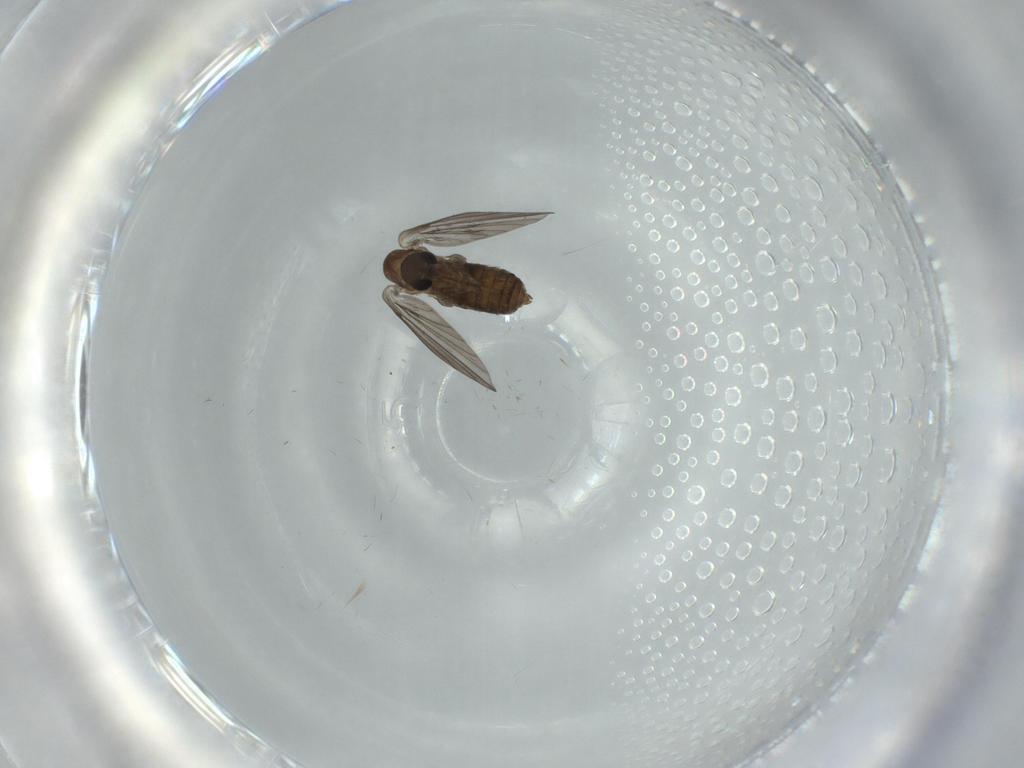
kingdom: Animalia
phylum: Arthropoda
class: Insecta
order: Diptera
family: Psychodidae
